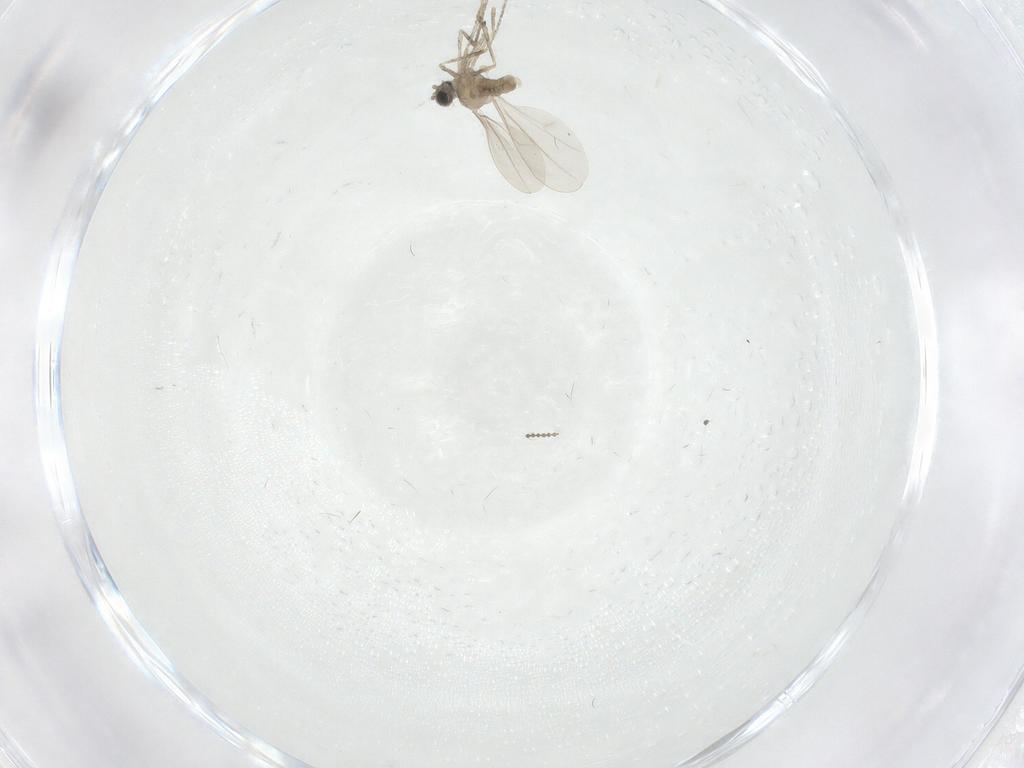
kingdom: Animalia
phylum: Arthropoda
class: Insecta
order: Diptera
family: Cecidomyiidae
